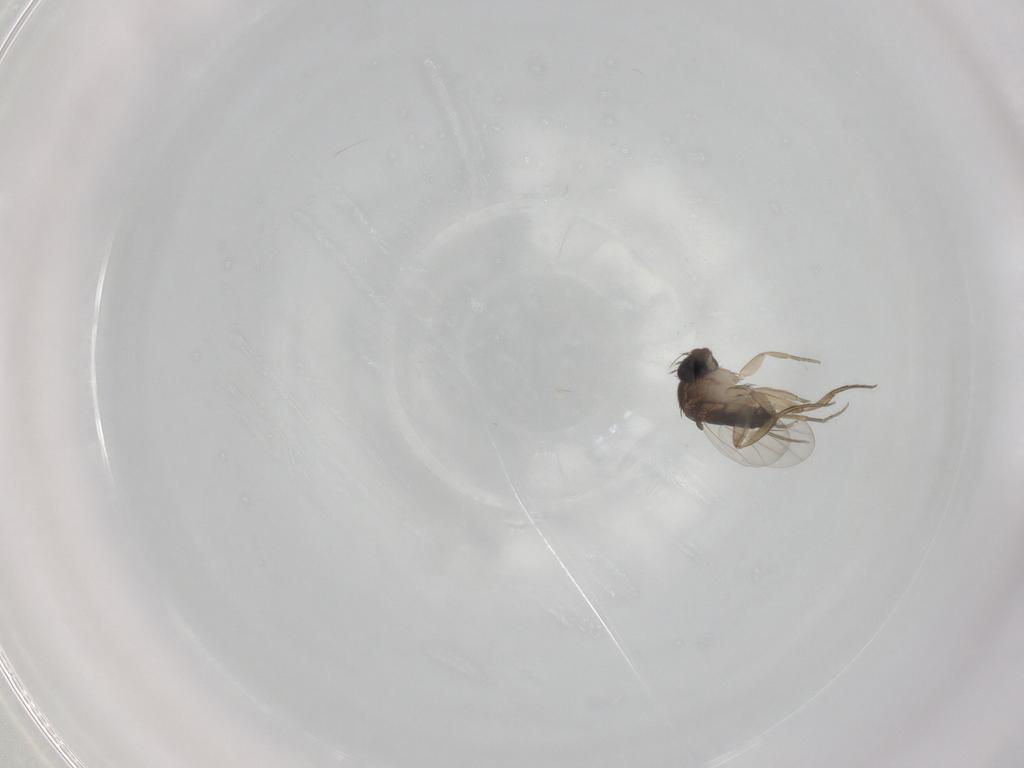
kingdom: Animalia
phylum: Arthropoda
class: Insecta
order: Diptera
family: Phoridae
